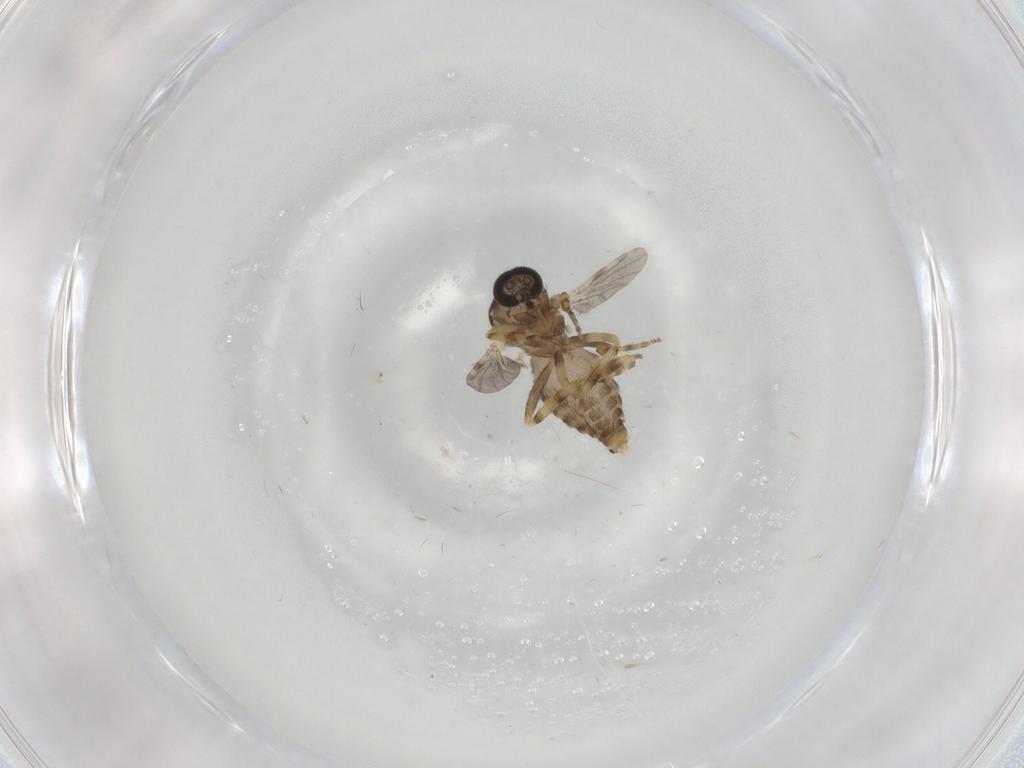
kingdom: Animalia
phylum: Arthropoda
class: Insecta
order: Diptera
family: Ceratopogonidae
